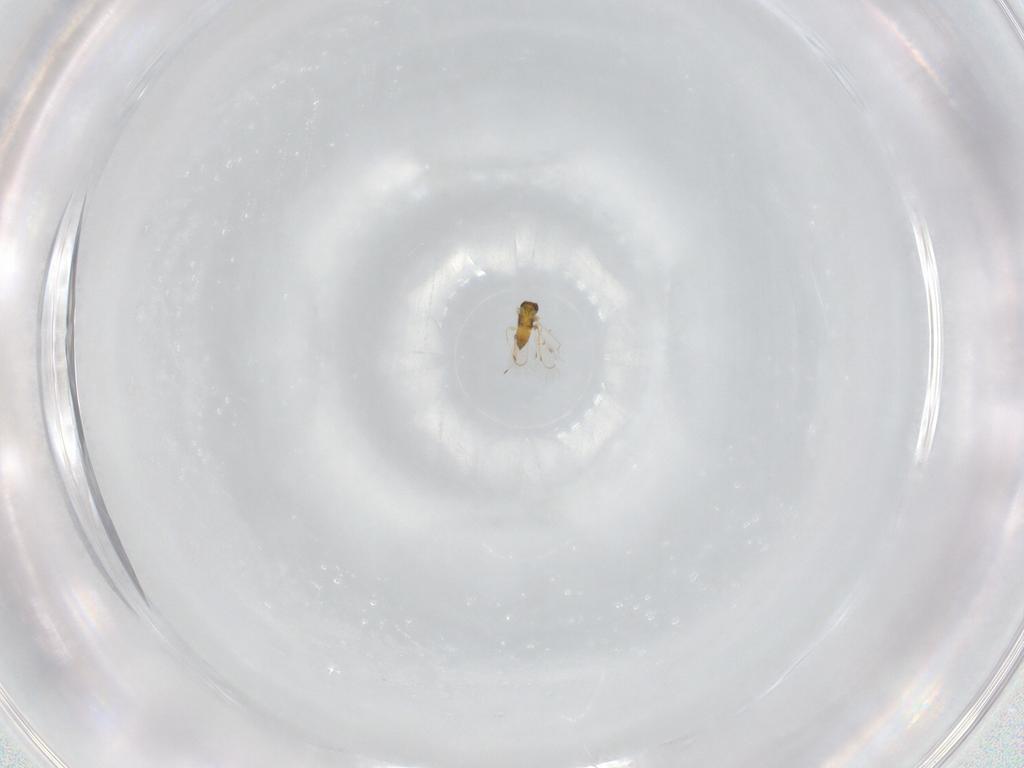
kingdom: Animalia
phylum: Arthropoda
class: Insecta
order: Hymenoptera
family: Trichogrammatidae
